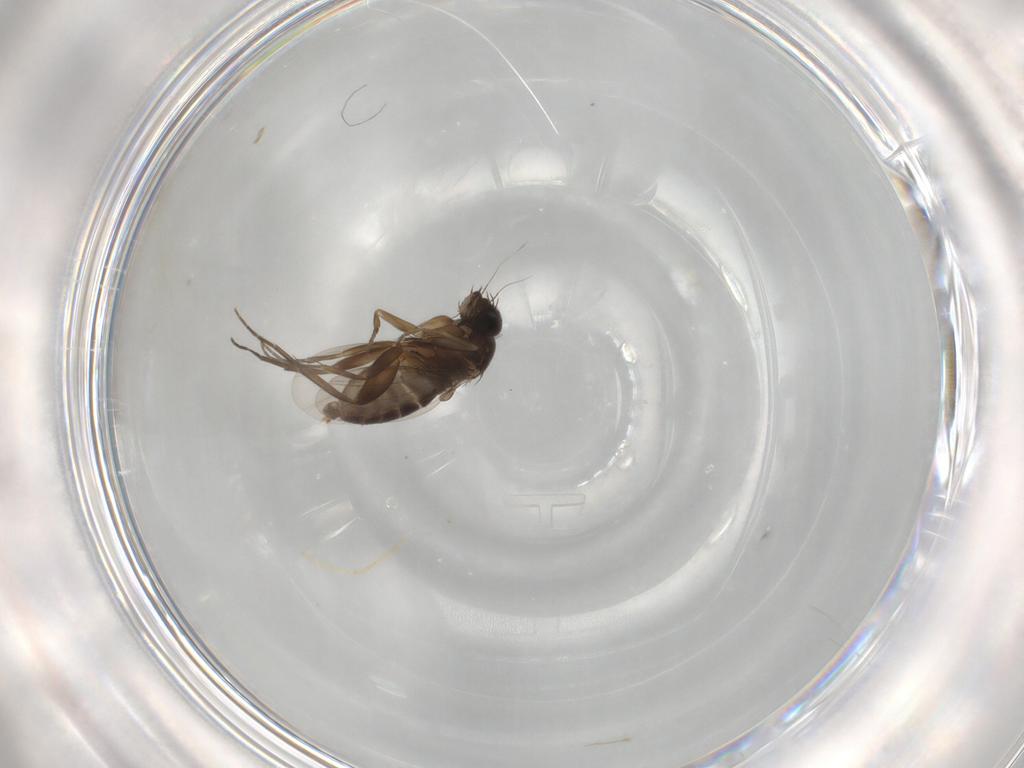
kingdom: Animalia
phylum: Arthropoda
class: Insecta
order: Diptera
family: Phoridae
